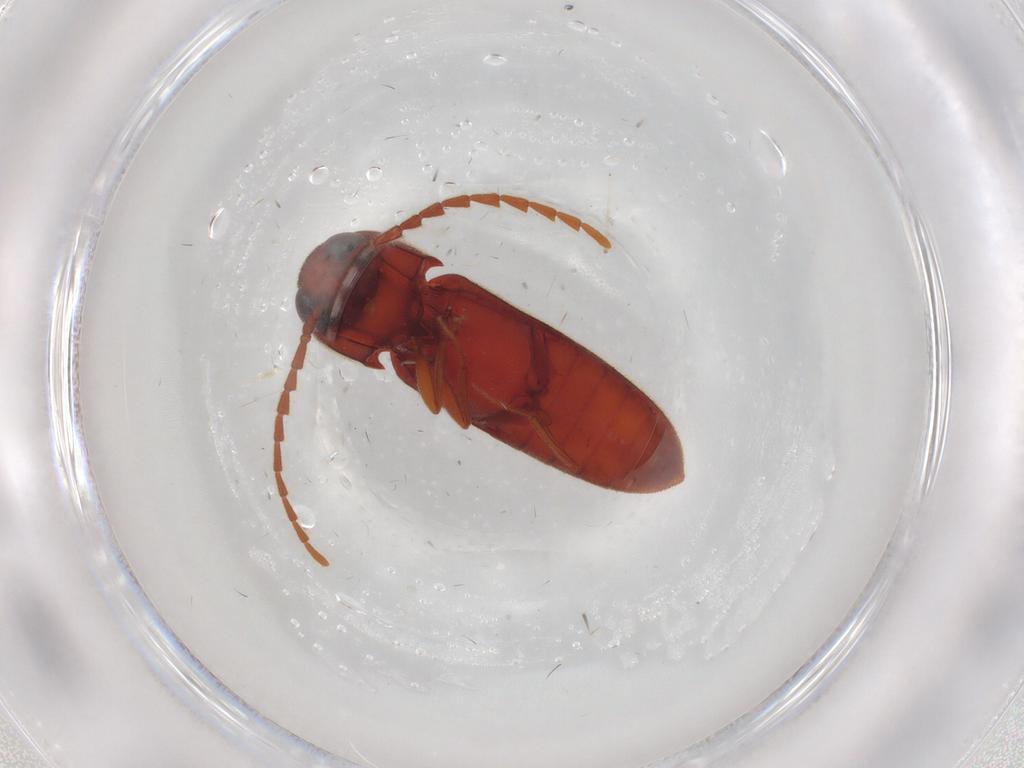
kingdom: Animalia
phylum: Arthropoda
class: Insecta
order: Coleoptera
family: Eucnemidae
